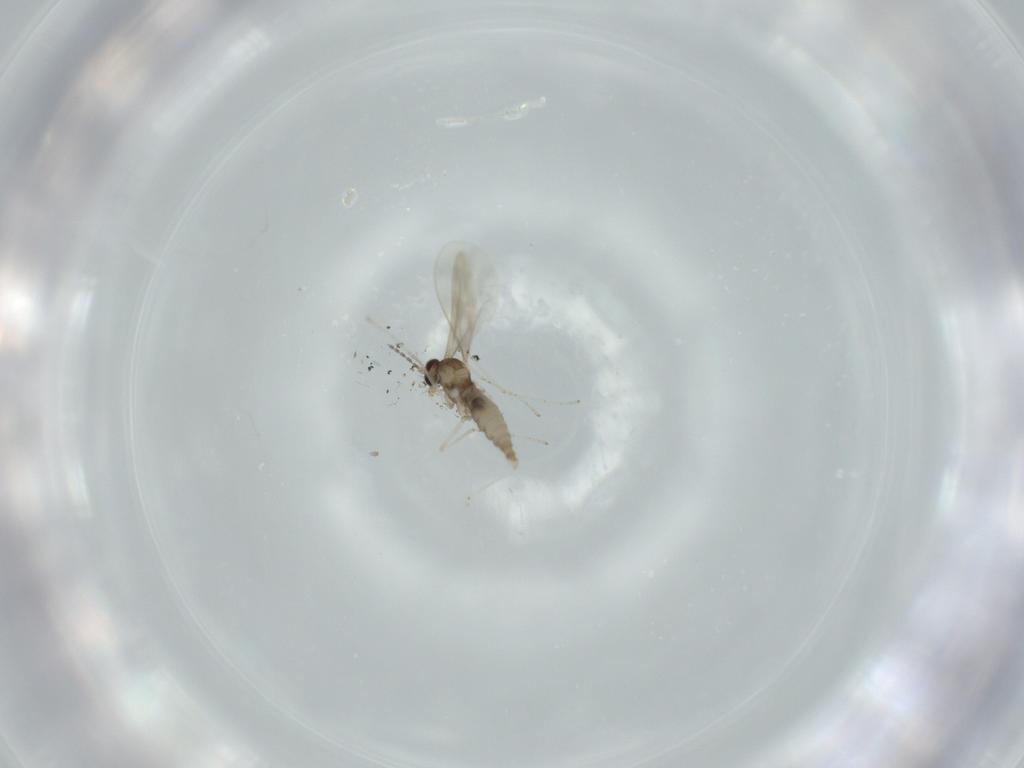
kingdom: Animalia
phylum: Arthropoda
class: Insecta
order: Diptera
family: Cecidomyiidae
